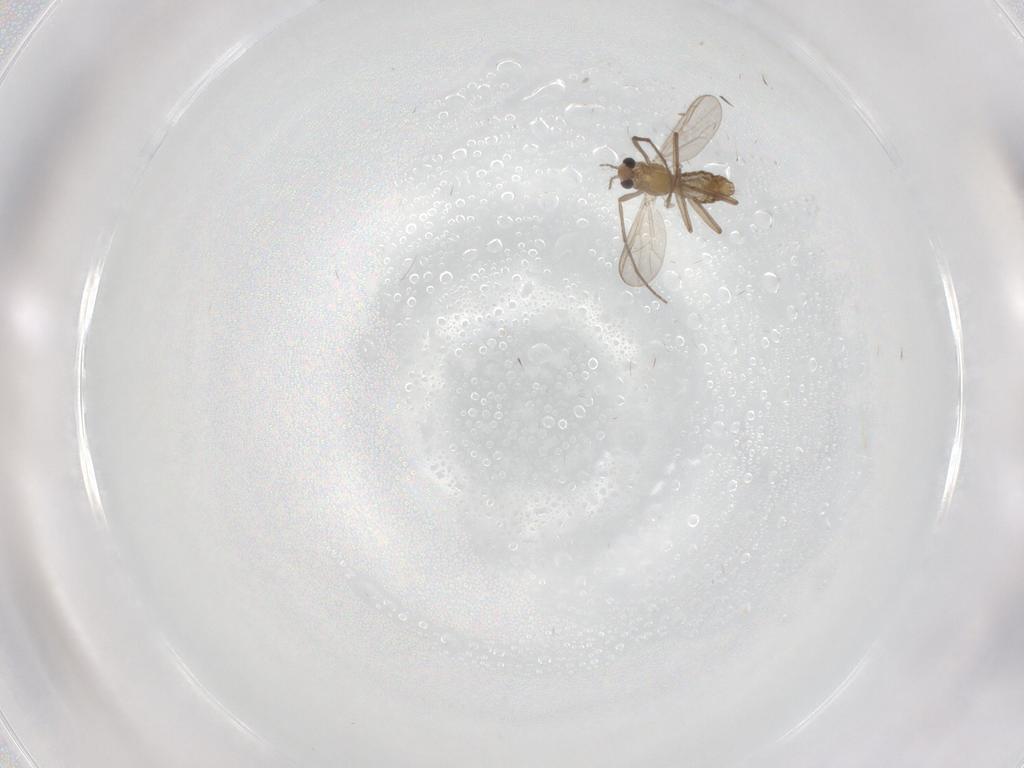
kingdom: Animalia
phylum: Arthropoda
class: Insecta
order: Diptera
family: Chironomidae
